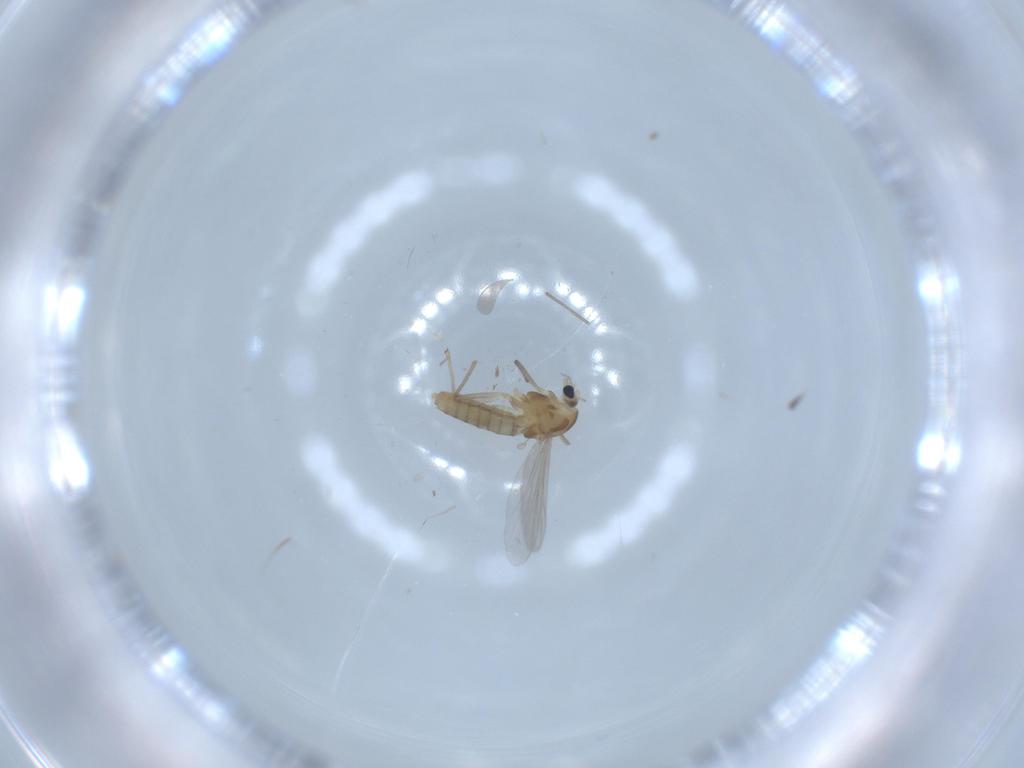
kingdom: Animalia
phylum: Arthropoda
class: Insecta
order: Diptera
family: Chironomidae
